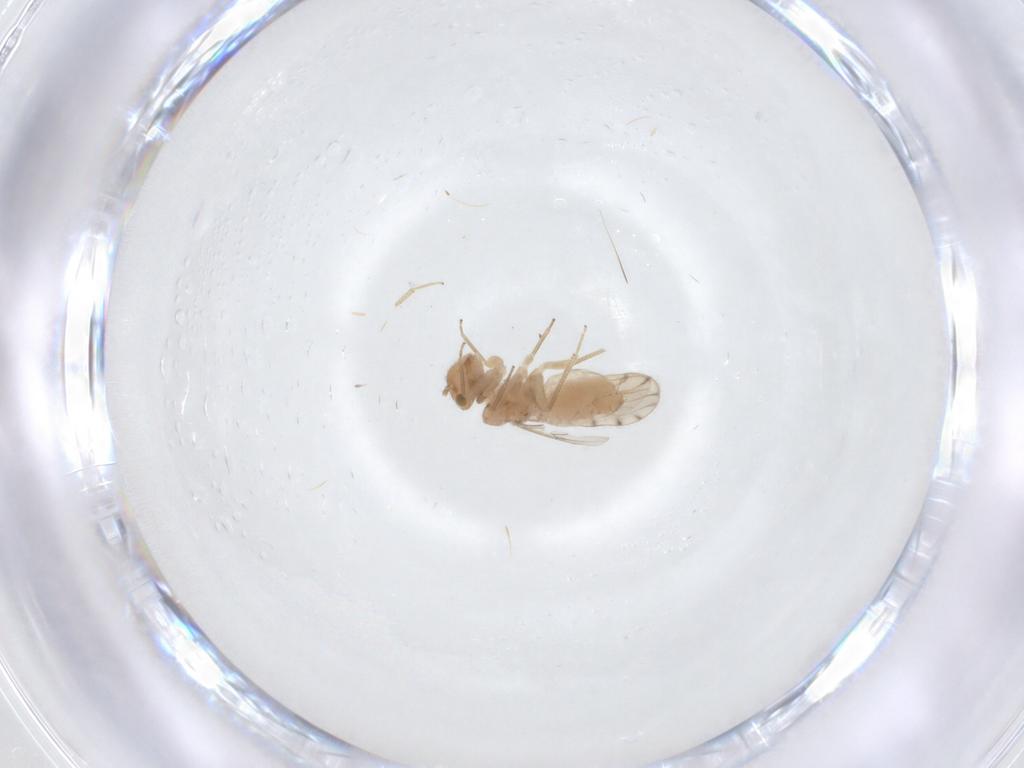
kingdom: Animalia
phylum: Arthropoda
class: Insecta
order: Psocodea
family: Ectopsocidae
